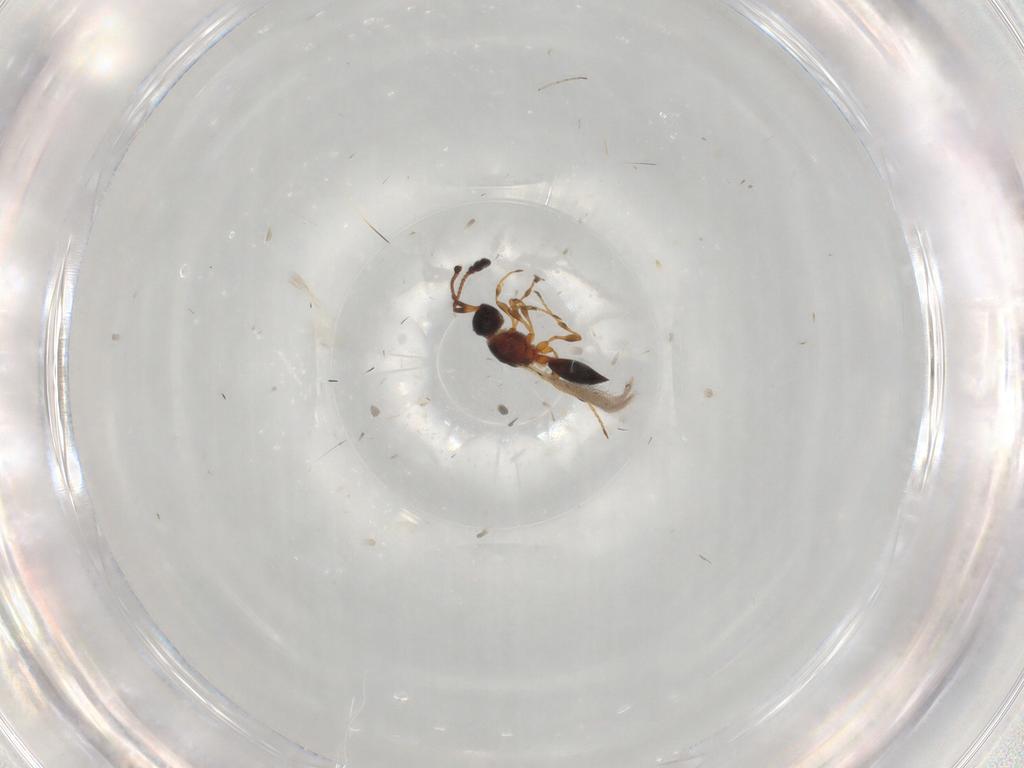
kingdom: Animalia
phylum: Arthropoda
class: Insecta
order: Hymenoptera
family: Diapriidae
